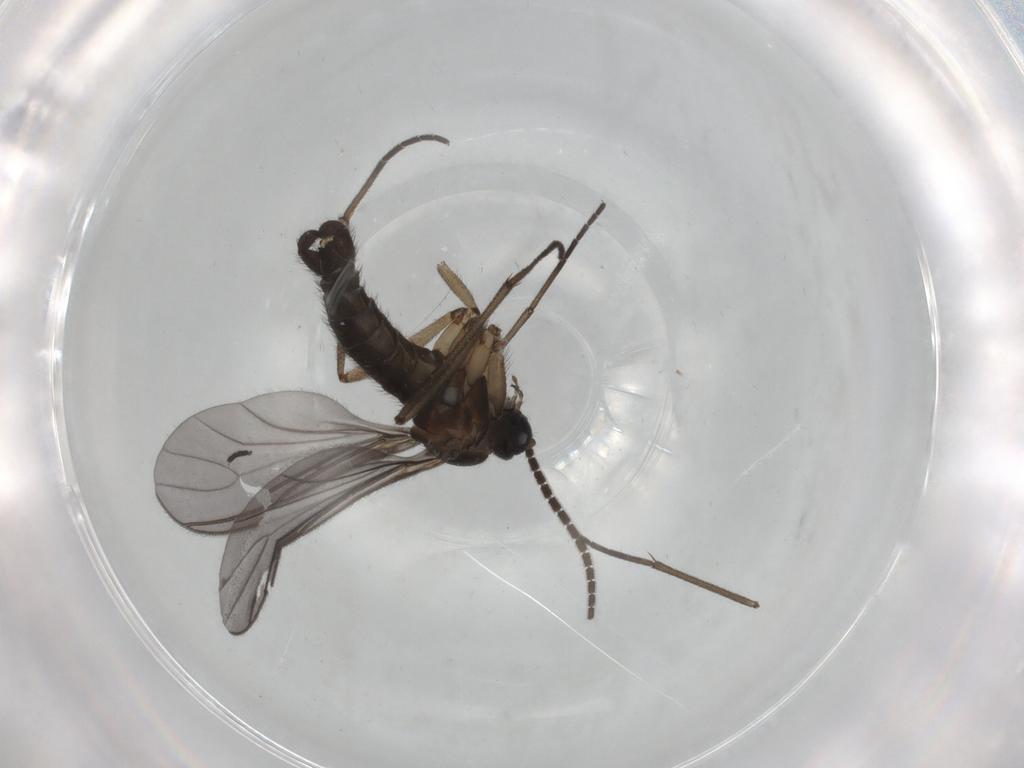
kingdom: Animalia
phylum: Arthropoda
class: Insecta
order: Diptera
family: Sciaridae
